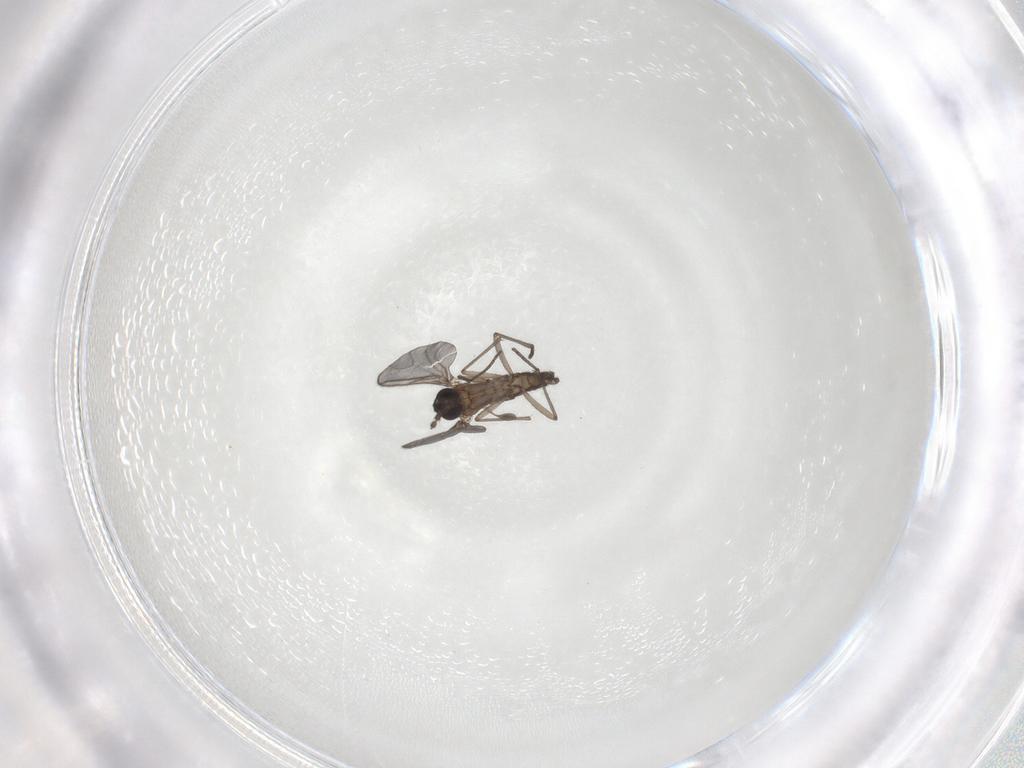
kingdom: Animalia
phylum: Arthropoda
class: Insecta
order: Diptera
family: Sciaridae
